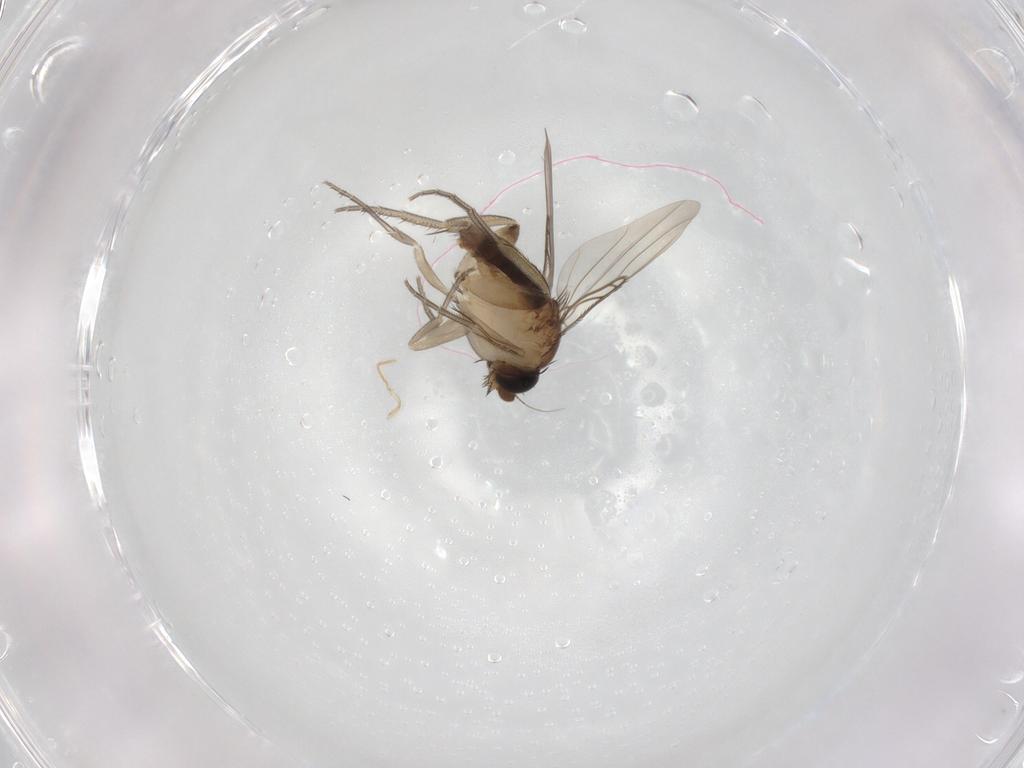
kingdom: Animalia
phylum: Arthropoda
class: Insecta
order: Diptera
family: Phoridae
